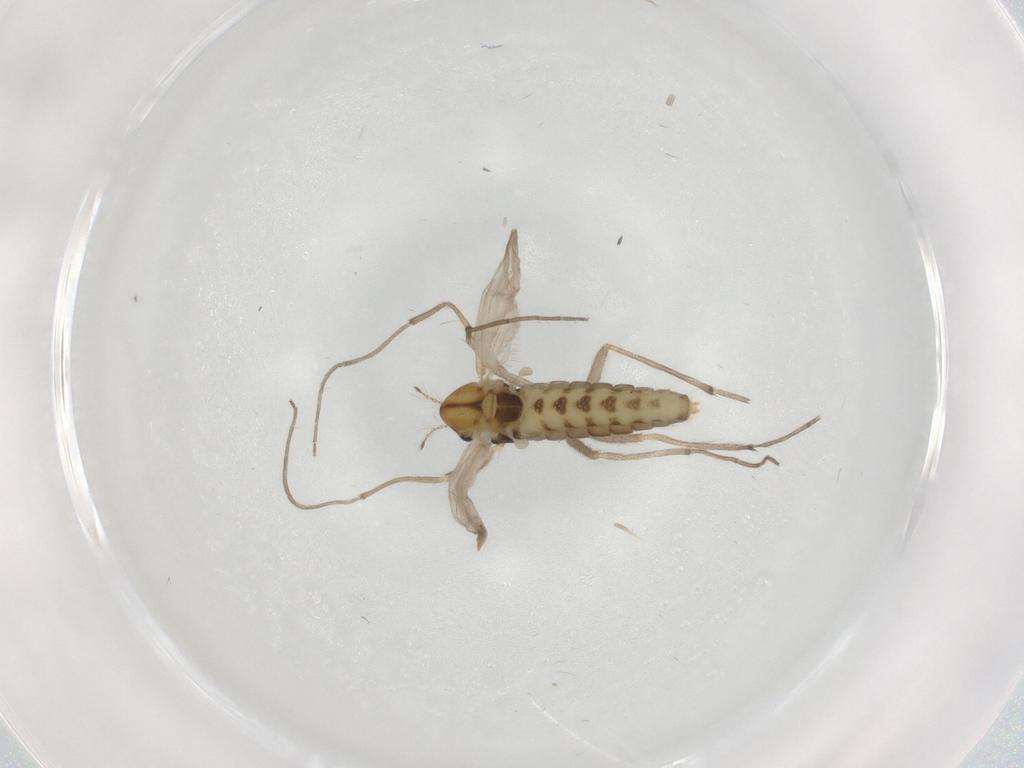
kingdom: Animalia
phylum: Arthropoda
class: Insecta
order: Diptera
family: Chironomidae
